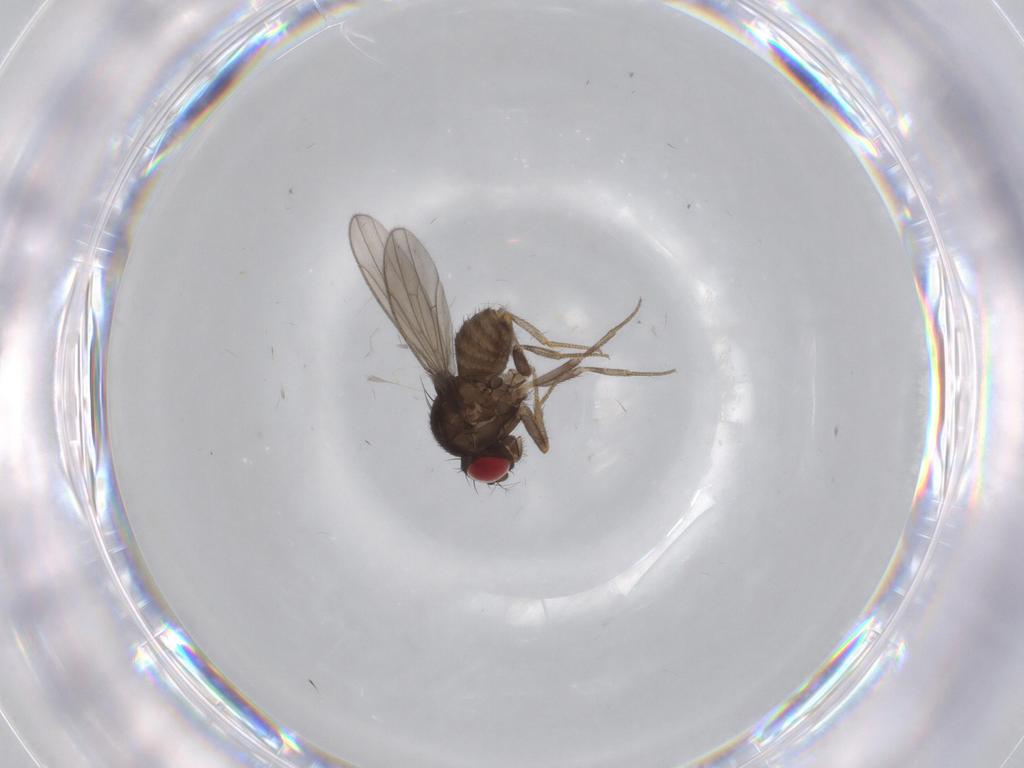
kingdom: Animalia
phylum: Arthropoda
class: Insecta
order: Diptera
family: Drosophilidae
